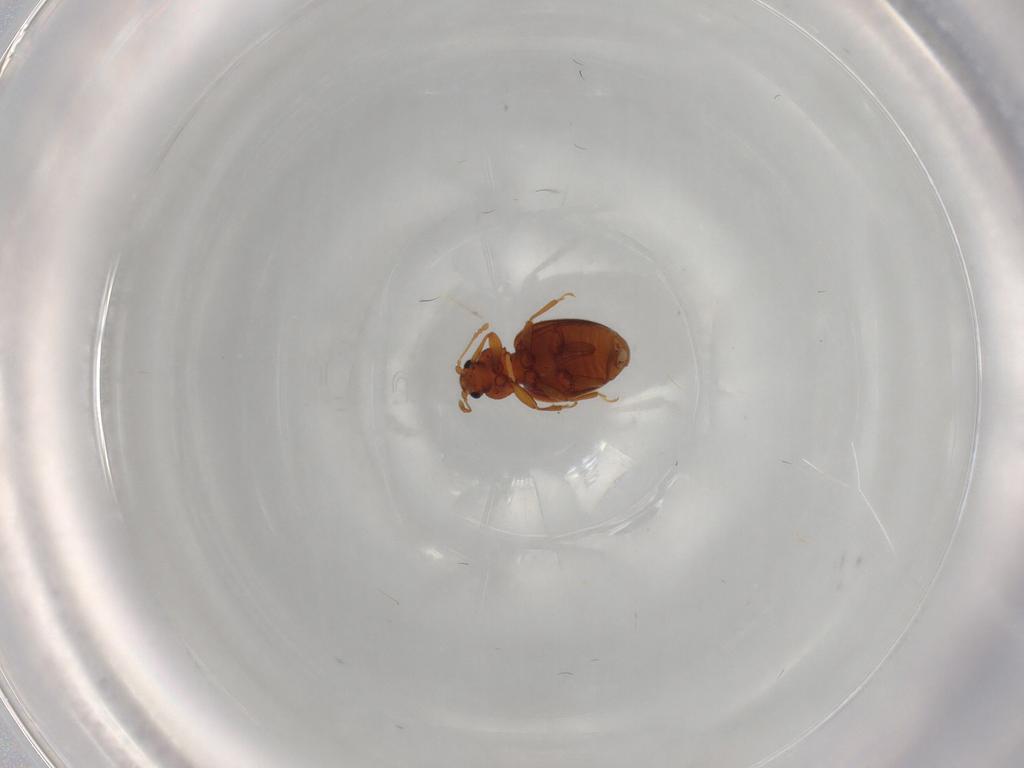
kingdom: Animalia
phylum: Arthropoda
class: Insecta
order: Coleoptera
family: Latridiidae
